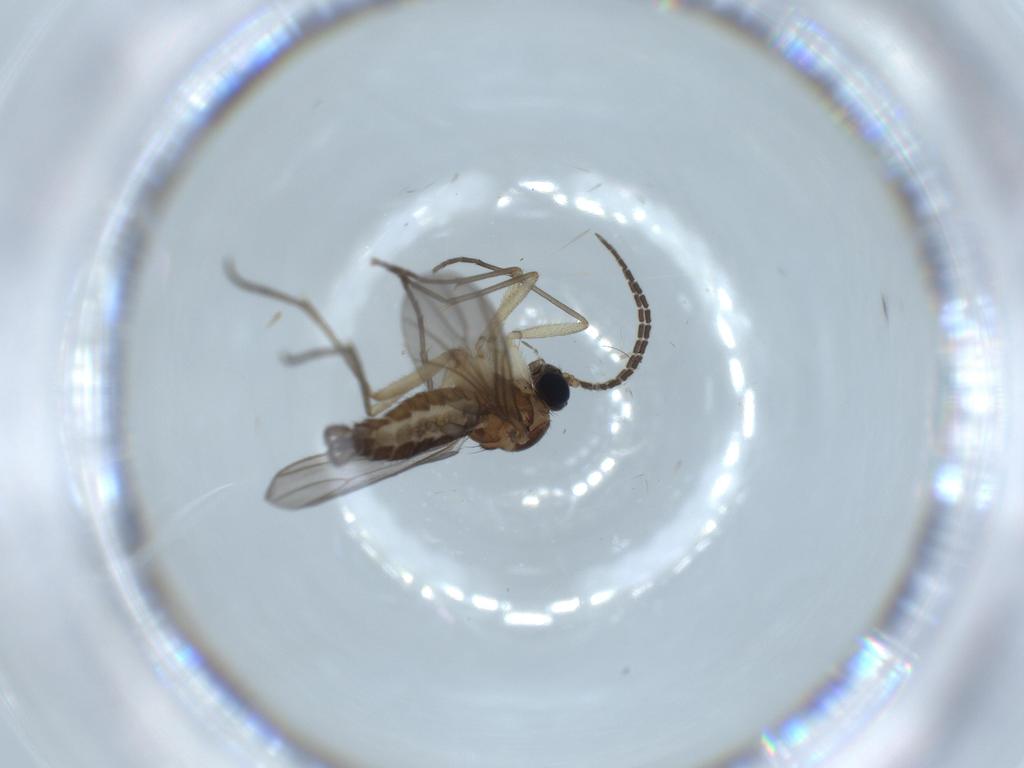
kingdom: Animalia
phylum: Arthropoda
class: Insecta
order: Diptera
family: Sciaridae
